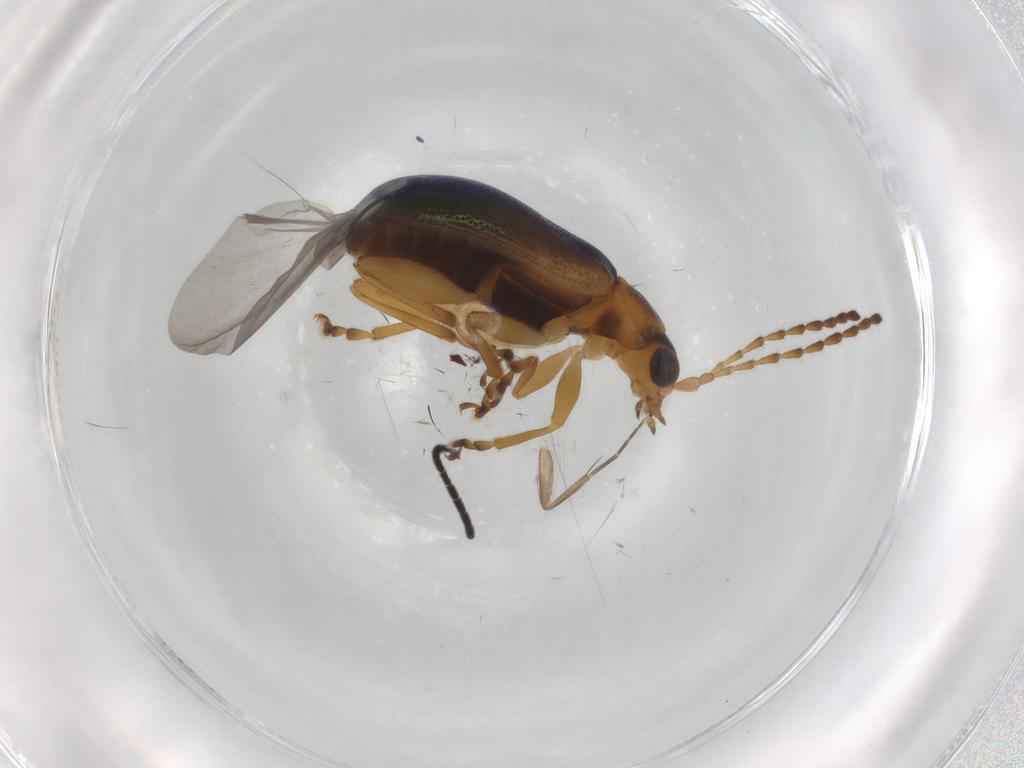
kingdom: Animalia
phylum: Arthropoda
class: Insecta
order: Coleoptera
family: Chrysomelidae
